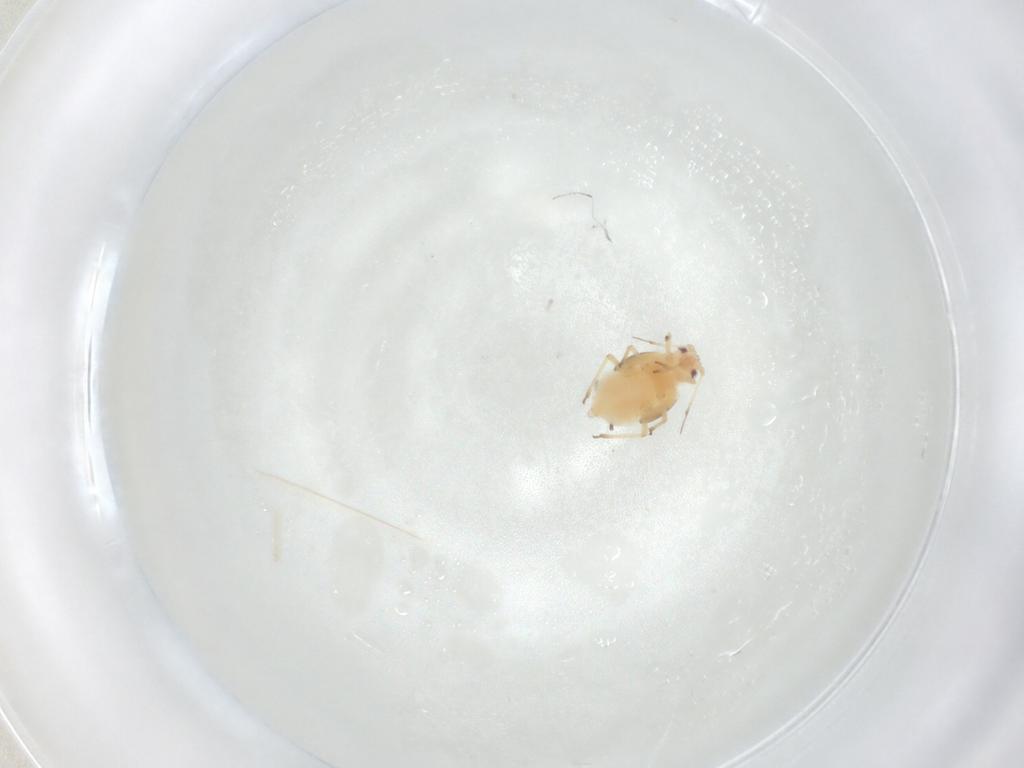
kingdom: Animalia
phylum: Arthropoda
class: Insecta
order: Hemiptera
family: Aphididae
